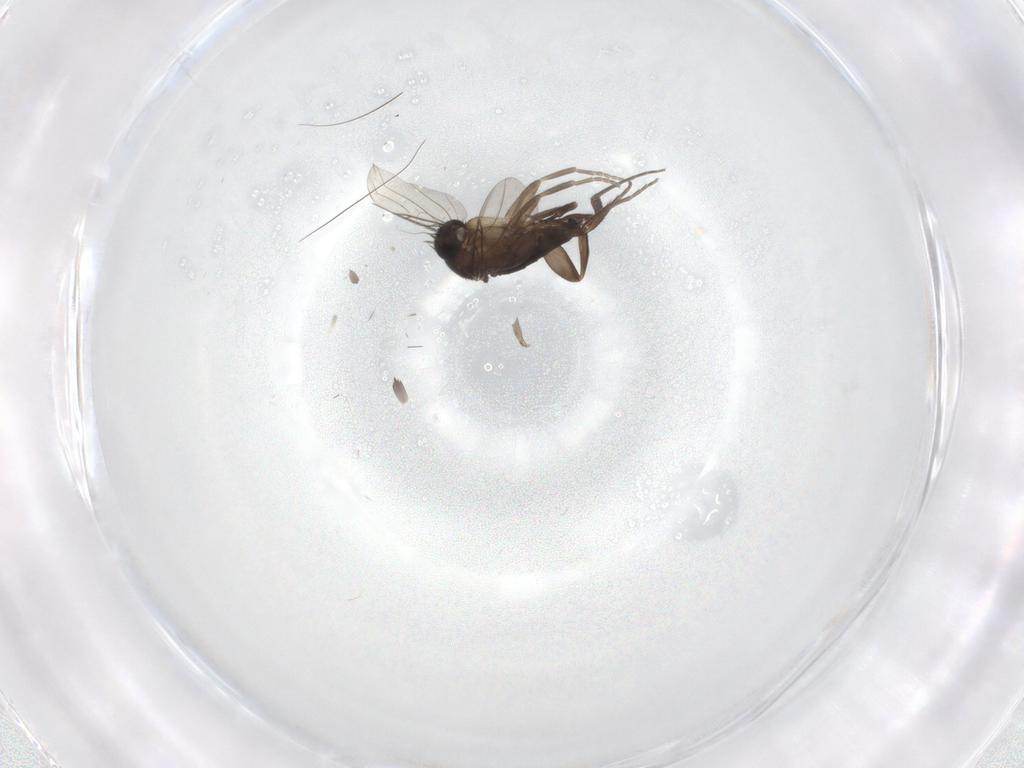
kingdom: Animalia
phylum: Arthropoda
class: Insecta
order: Diptera
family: Phoridae
